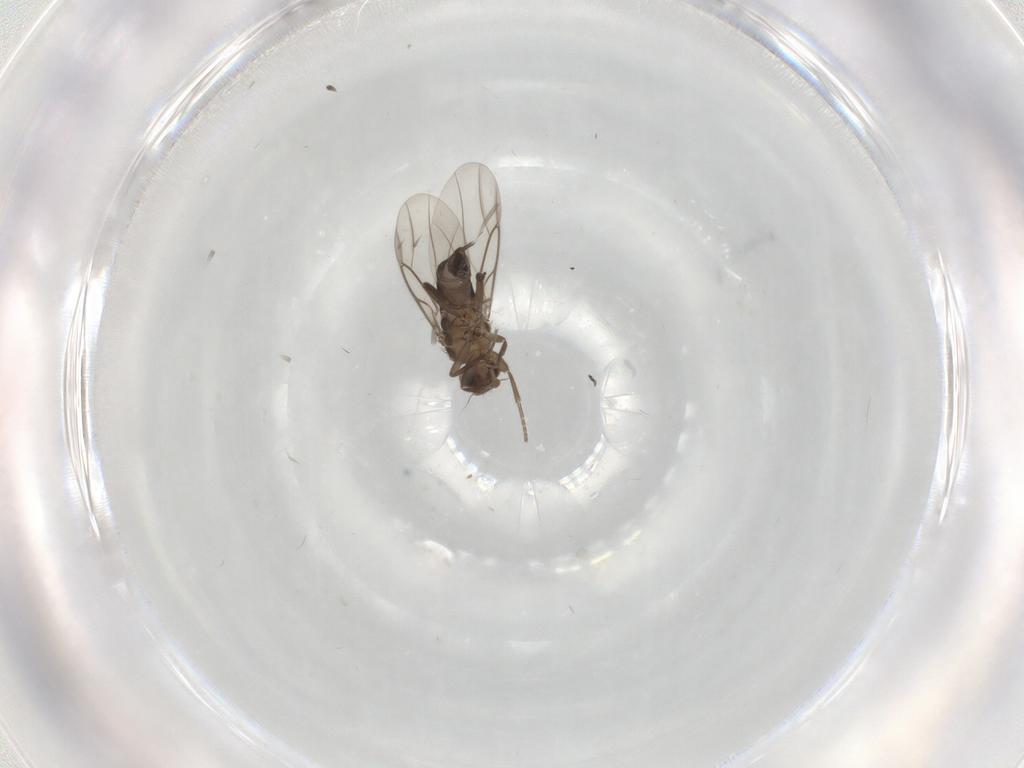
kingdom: Animalia
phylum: Arthropoda
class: Insecta
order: Diptera
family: Phoridae
